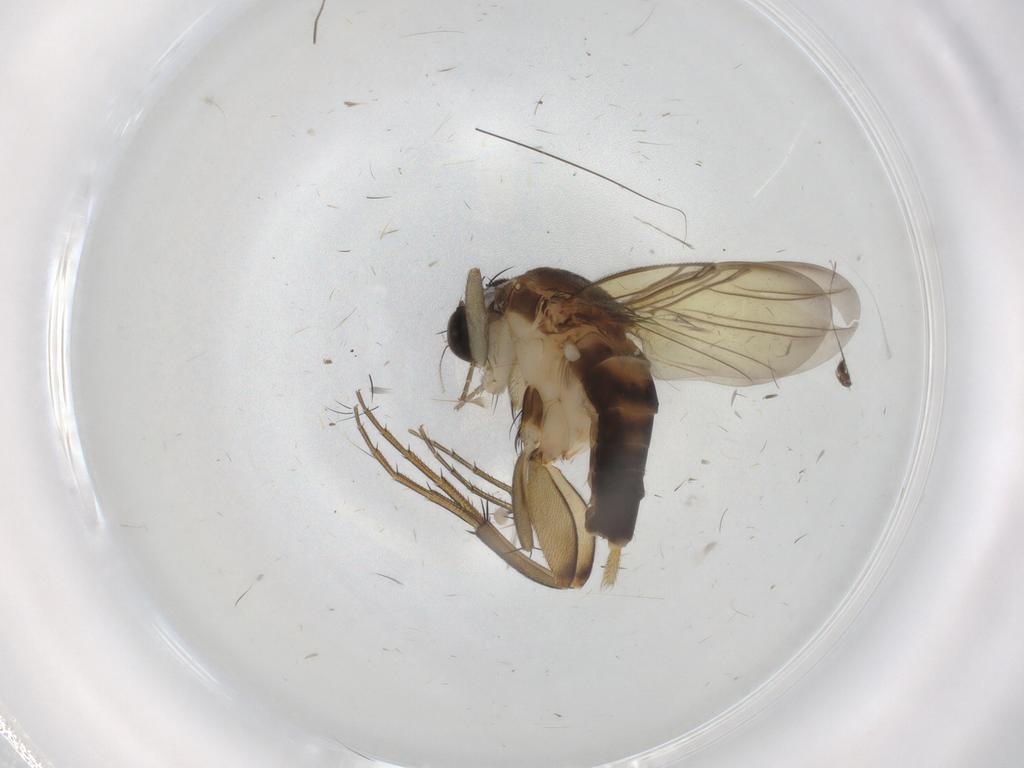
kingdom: Animalia
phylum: Arthropoda
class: Insecta
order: Diptera
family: Phoridae
